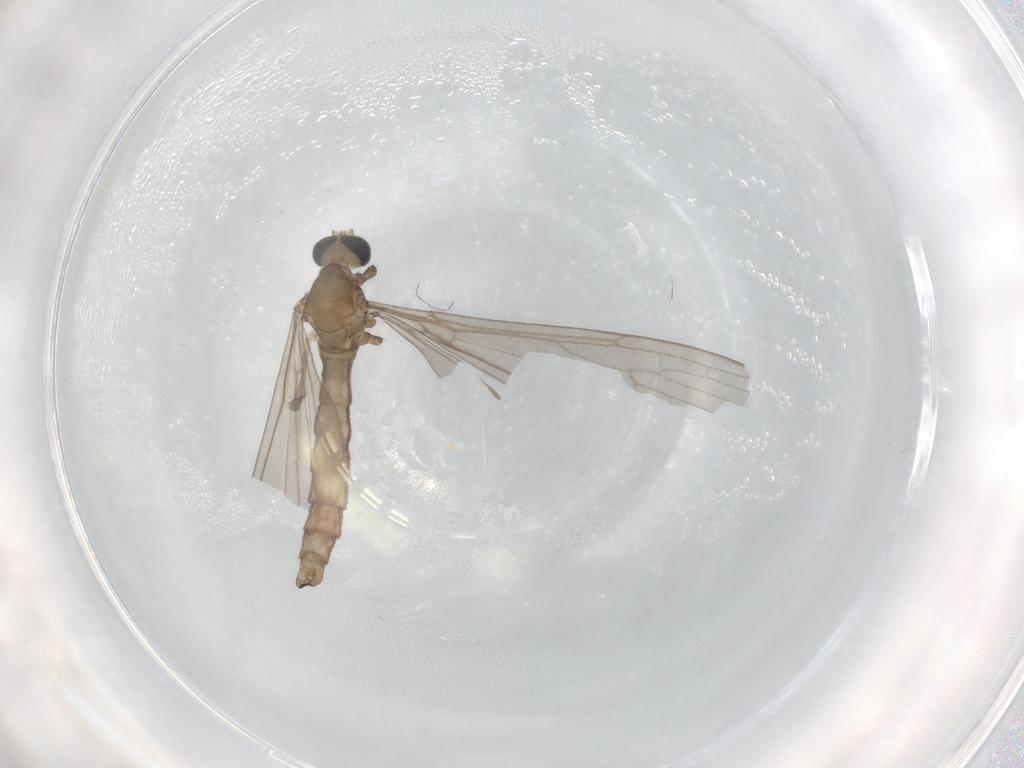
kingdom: Animalia
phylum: Arthropoda
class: Insecta
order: Diptera
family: Limoniidae
